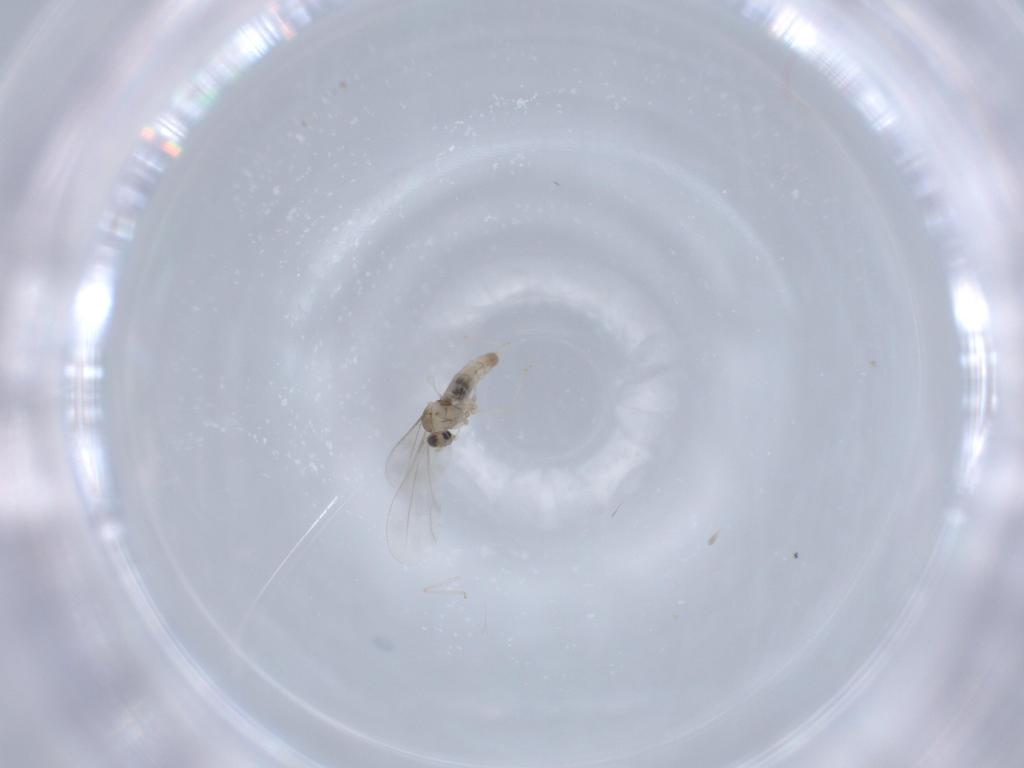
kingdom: Animalia
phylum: Arthropoda
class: Insecta
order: Diptera
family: Cecidomyiidae
